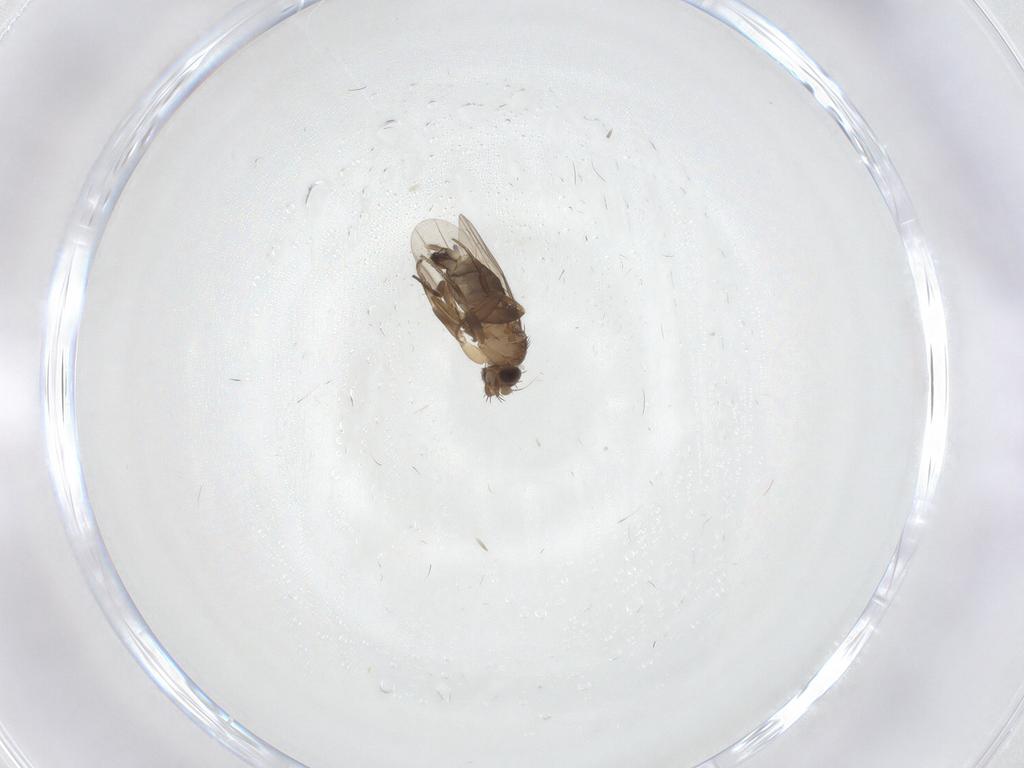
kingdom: Animalia
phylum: Arthropoda
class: Insecta
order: Diptera
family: Phoridae
